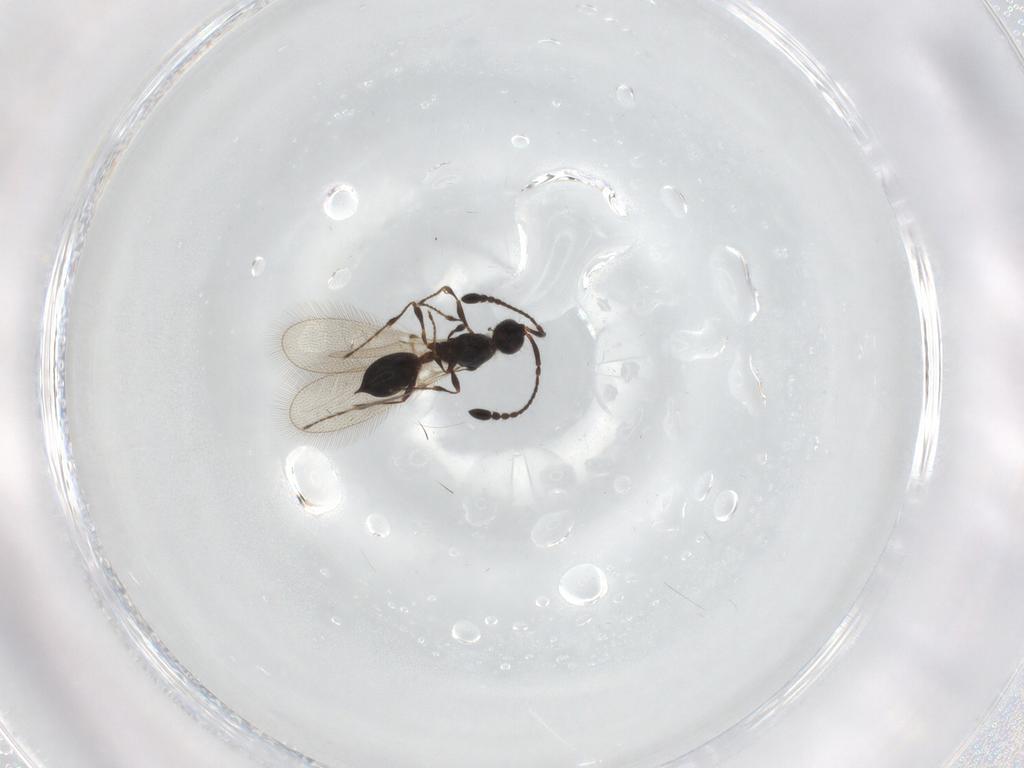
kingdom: Animalia
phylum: Arthropoda
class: Insecta
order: Hymenoptera
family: Diapriidae
